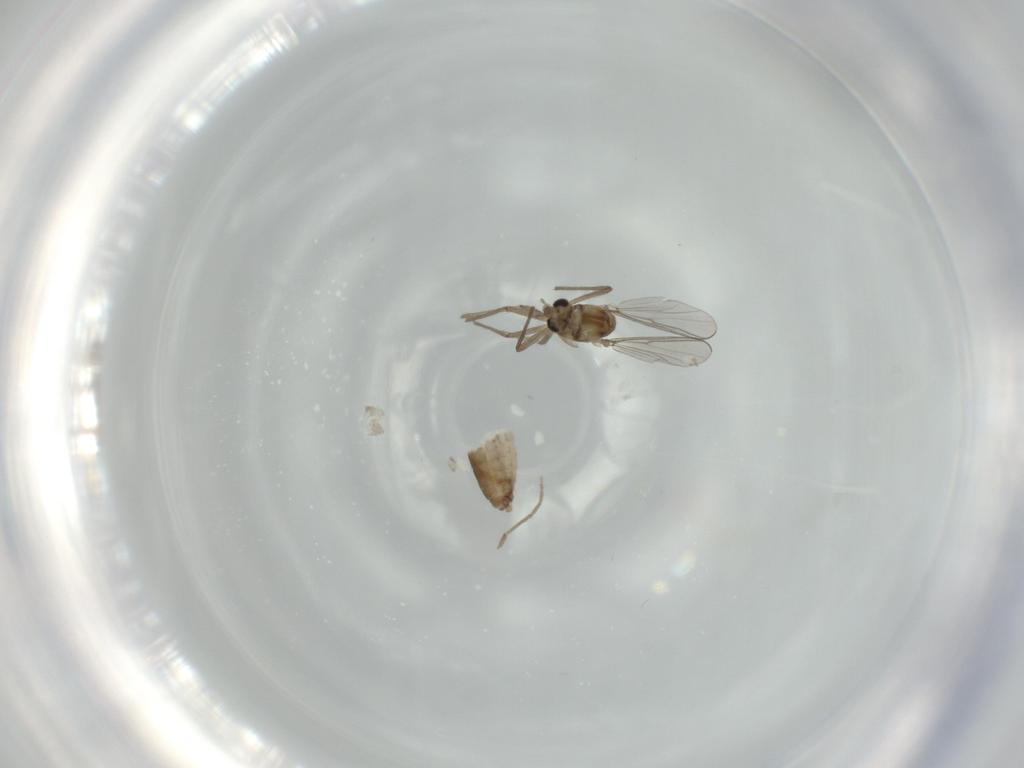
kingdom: Animalia
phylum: Arthropoda
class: Insecta
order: Diptera
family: Chironomidae
